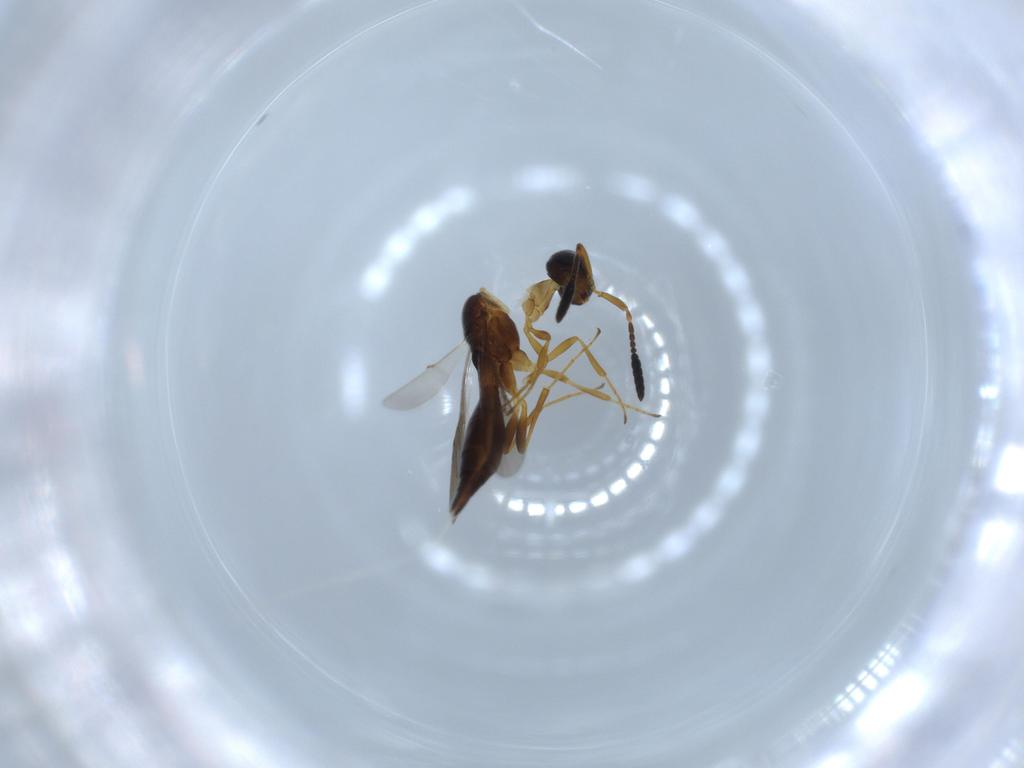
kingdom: Animalia
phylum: Arthropoda
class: Insecta
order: Hymenoptera
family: Scelionidae
